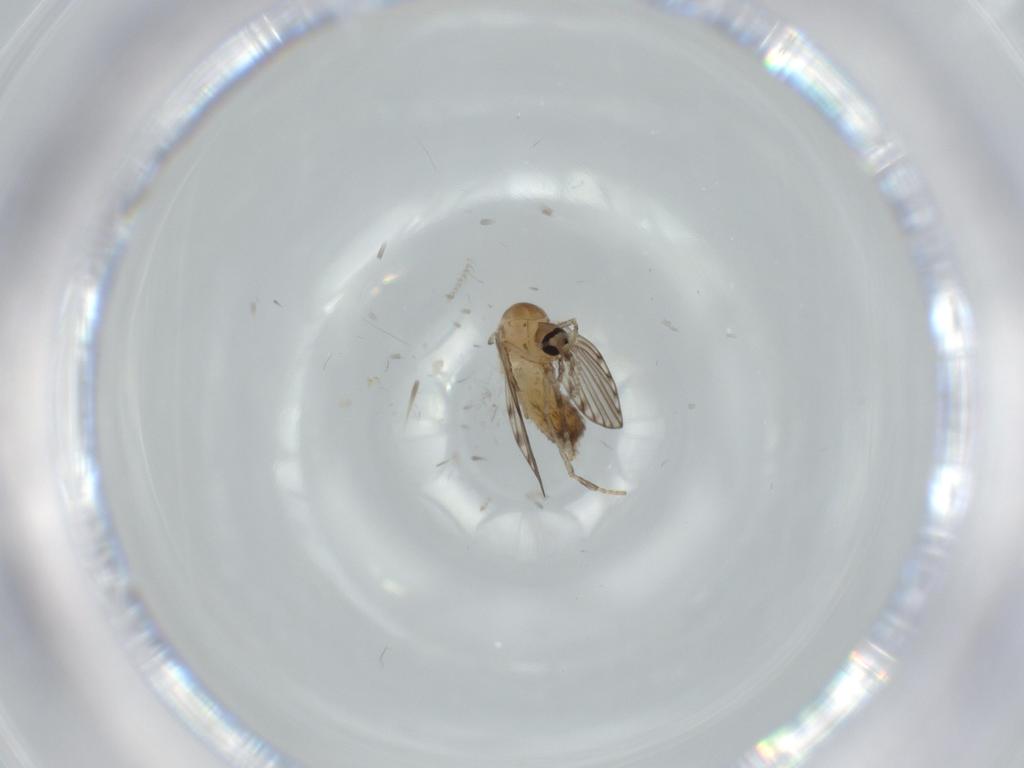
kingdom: Animalia
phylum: Arthropoda
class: Insecta
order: Diptera
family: Psychodidae
